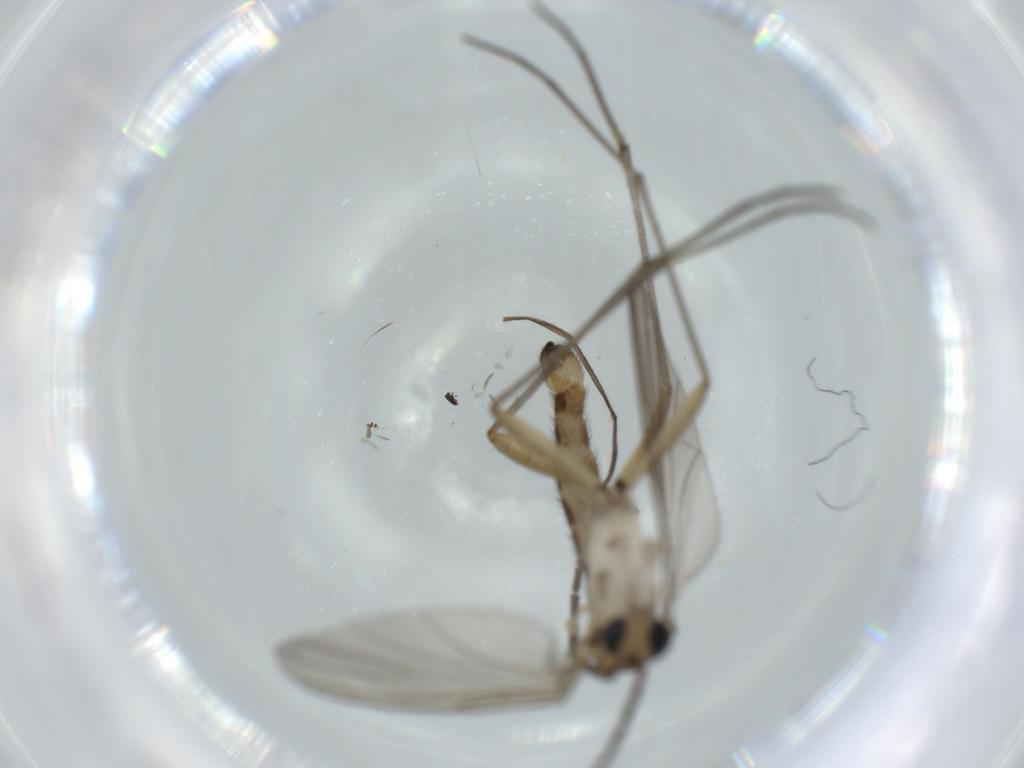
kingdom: Animalia
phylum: Arthropoda
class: Insecta
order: Diptera
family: Sciaridae
